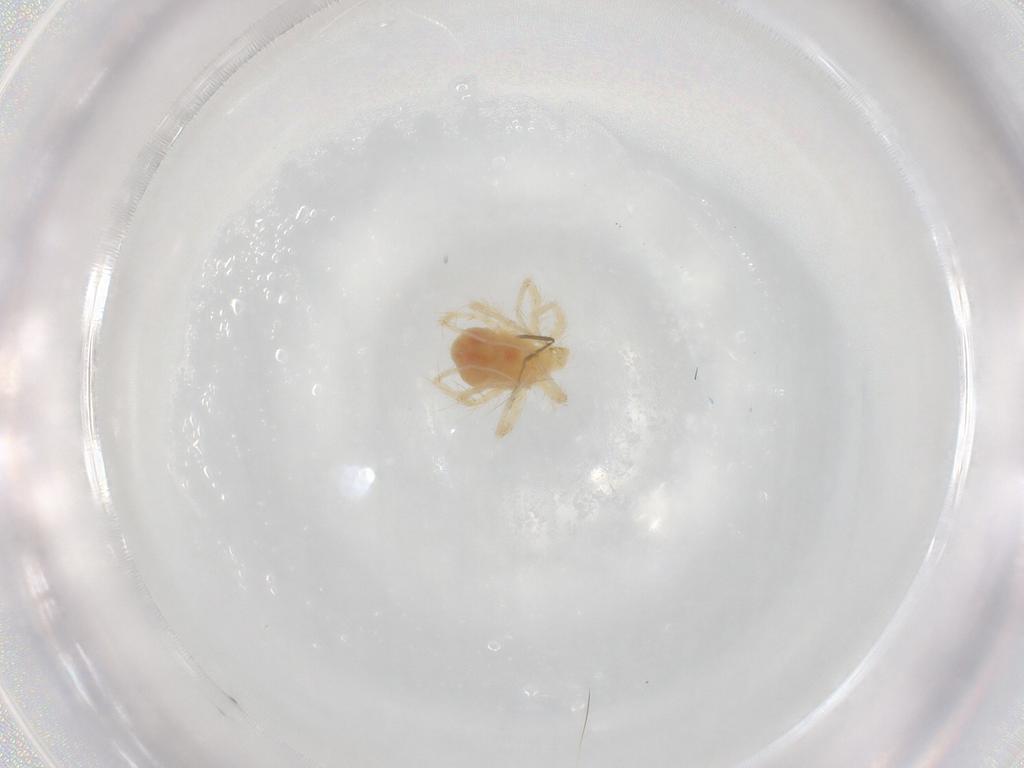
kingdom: Animalia
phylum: Arthropoda
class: Arachnida
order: Trombidiformes
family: Anystidae
